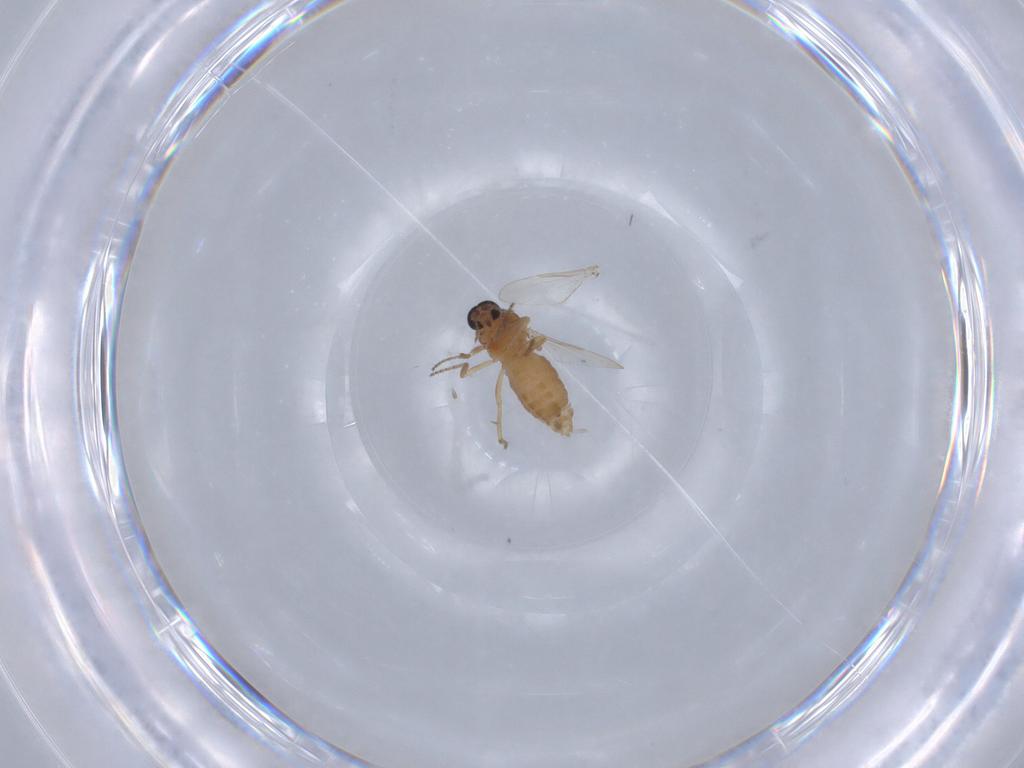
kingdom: Animalia
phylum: Arthropoda
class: Insecta
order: Diptera
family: Ceratopogonidae
